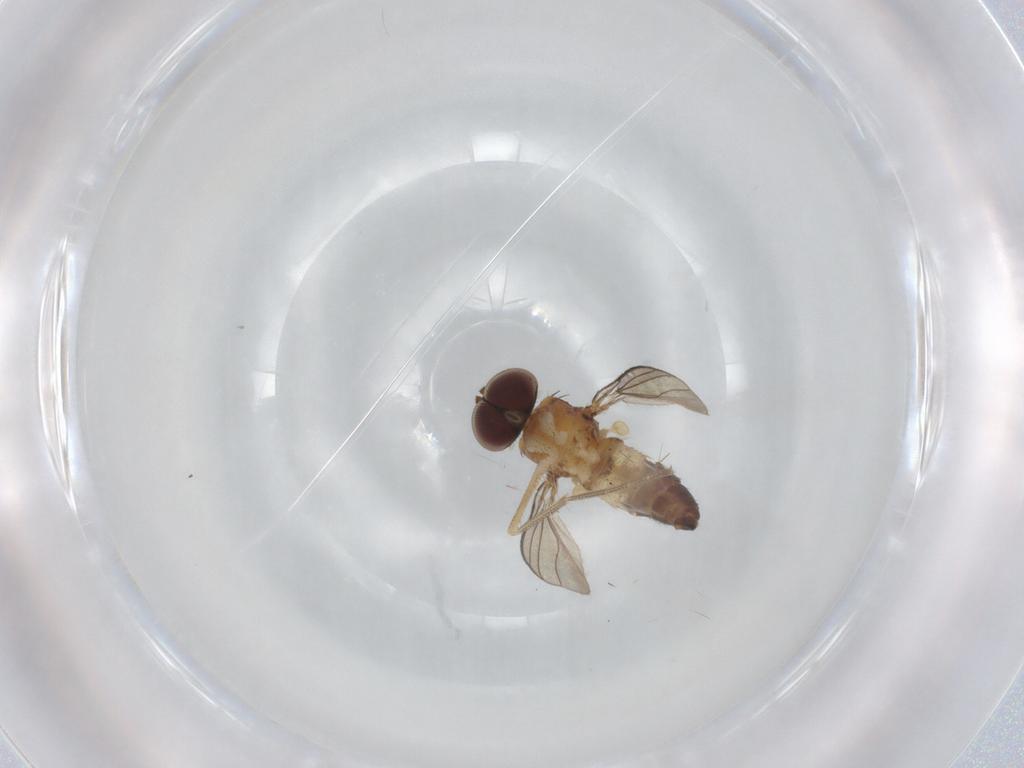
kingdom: Animalia
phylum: Arthropoda
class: Insecta
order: Diptera
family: Dolichopodidae
